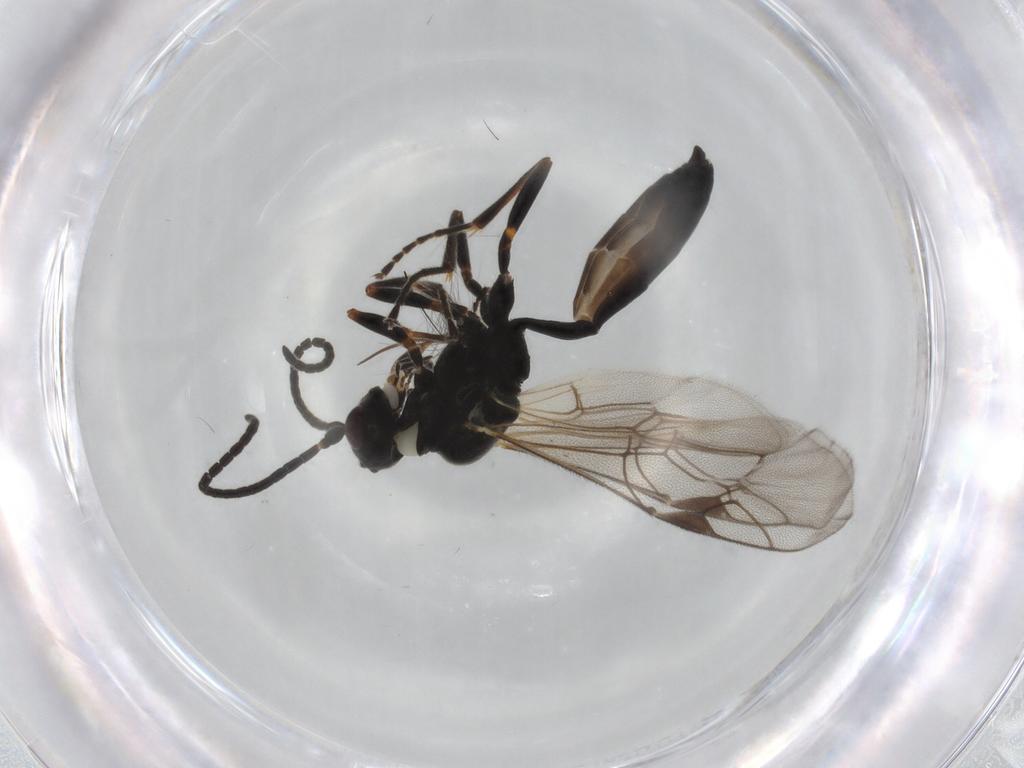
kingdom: Animalia
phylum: Arthropoda
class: Insecta
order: Hymenoptera
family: Ichneumonidae
